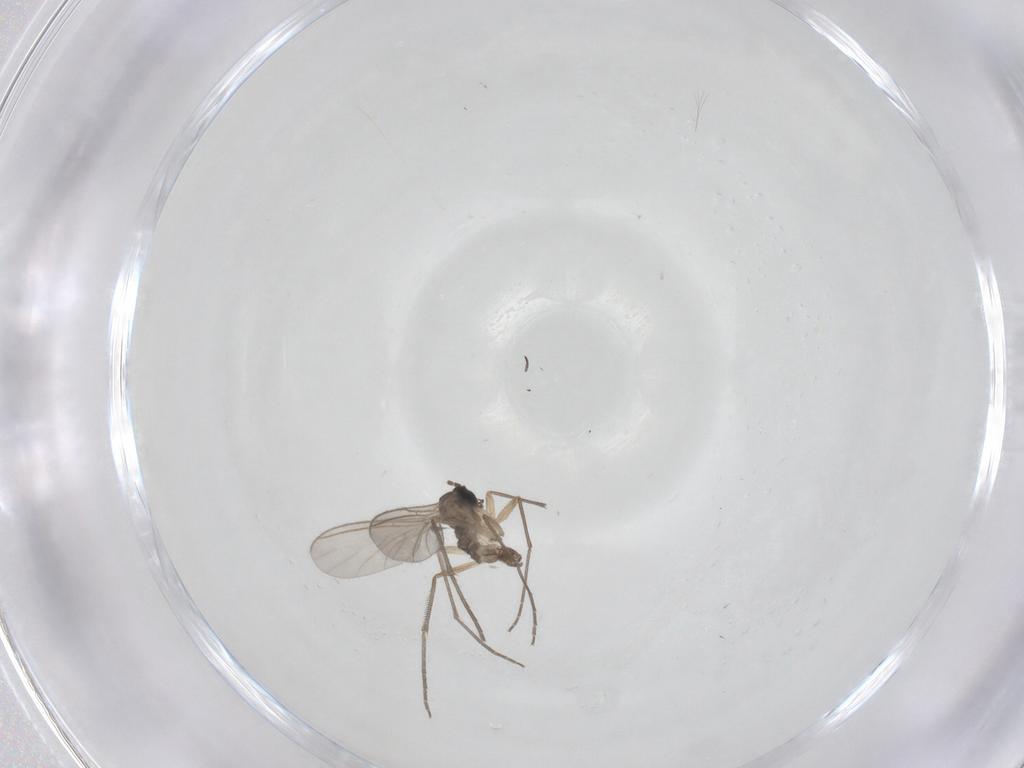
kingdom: Animalia
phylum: Arthropoda
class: Insecta
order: Diptera
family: Sciaridae
